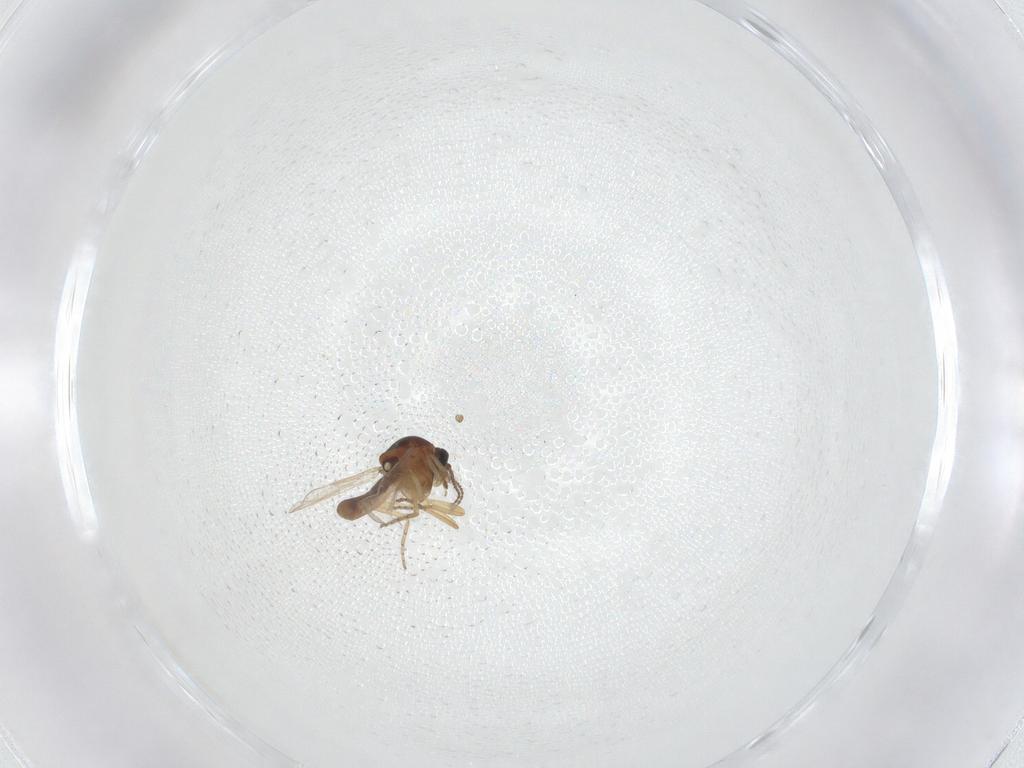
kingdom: Animalia
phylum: Arthropoda
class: Insecta
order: Diptera
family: Ceratopogonidae
